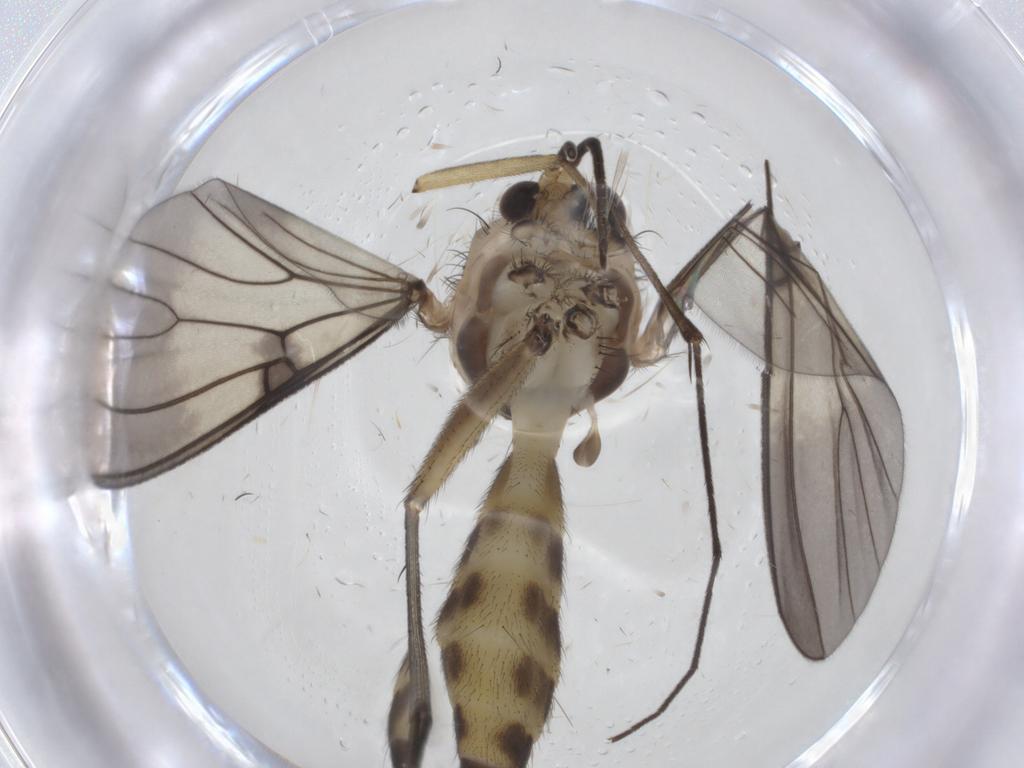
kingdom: Animalia
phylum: Arthropoda
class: Insecta
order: Diptera
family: Mycetophilidae
